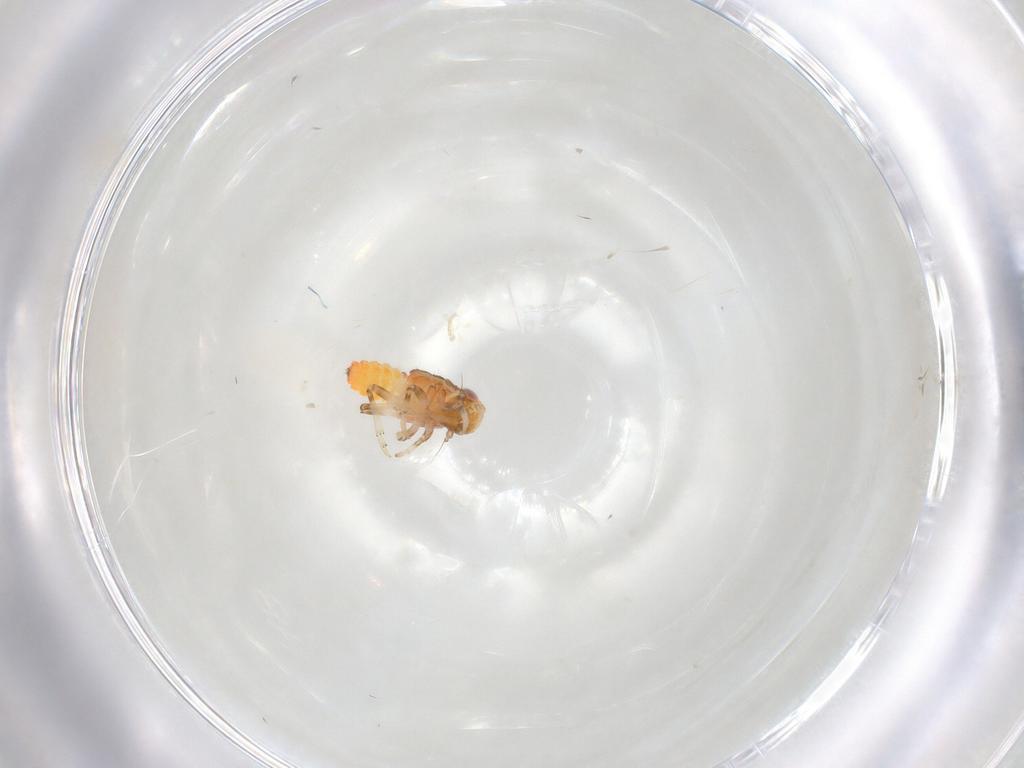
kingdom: Animalia
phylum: Arthropoda
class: Insecta
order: Hemiptera
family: Issidae
